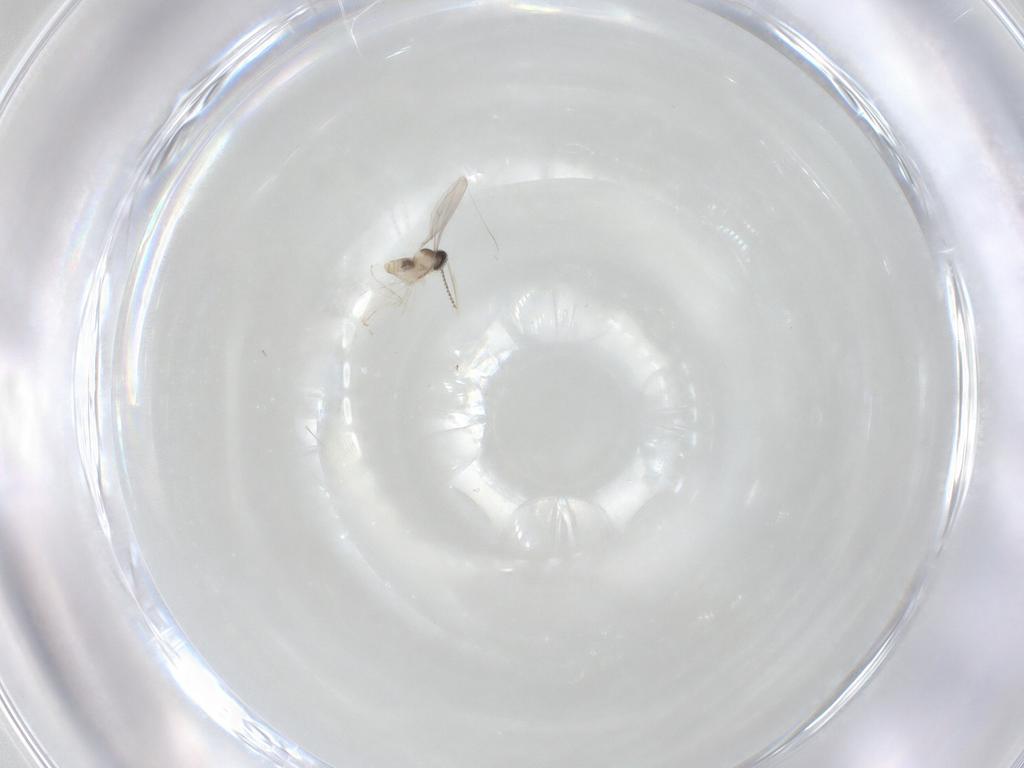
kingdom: Animalia
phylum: Arthropoda
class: Insecta
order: Diptera
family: Cecidomyiidae
